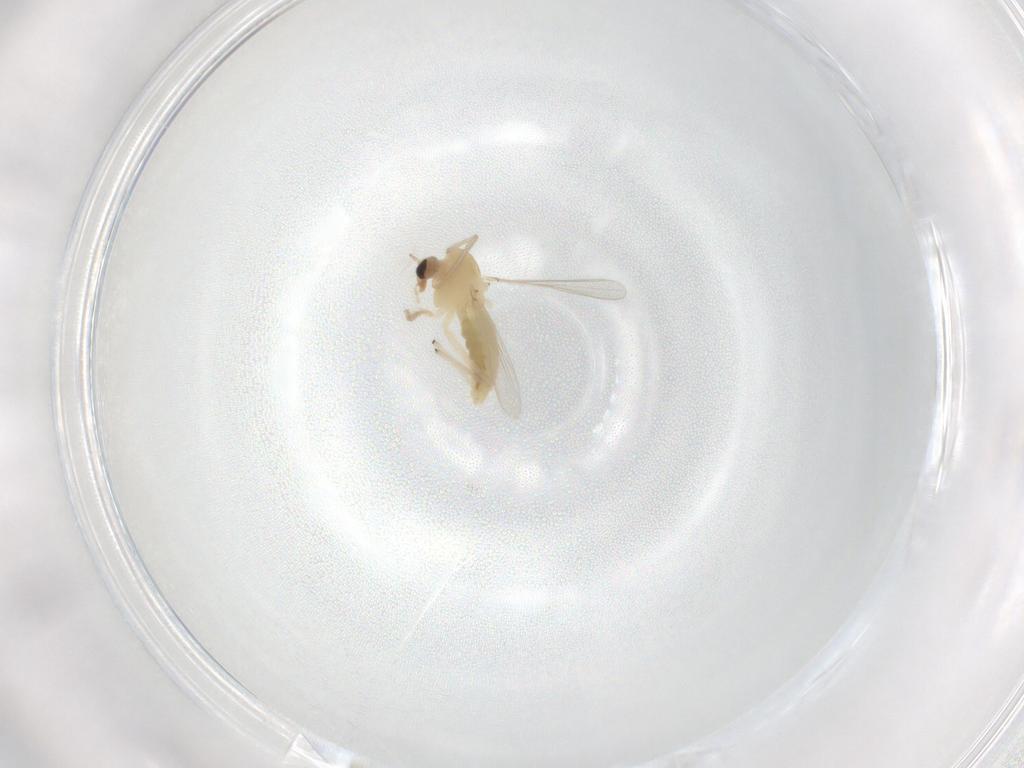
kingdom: Animalia
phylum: Arthropoda
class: Insecta
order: Diptera
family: Chironomidae
